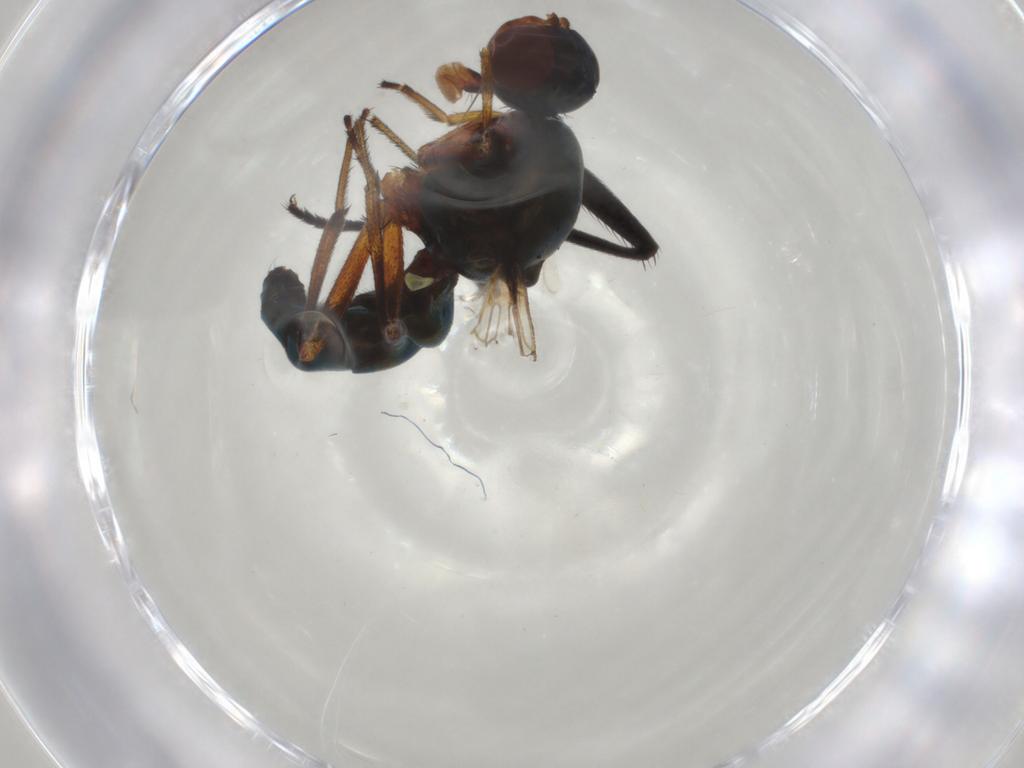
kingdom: Animalia
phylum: Arthropoda
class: Insecta
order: Diptera
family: Sepsidae
